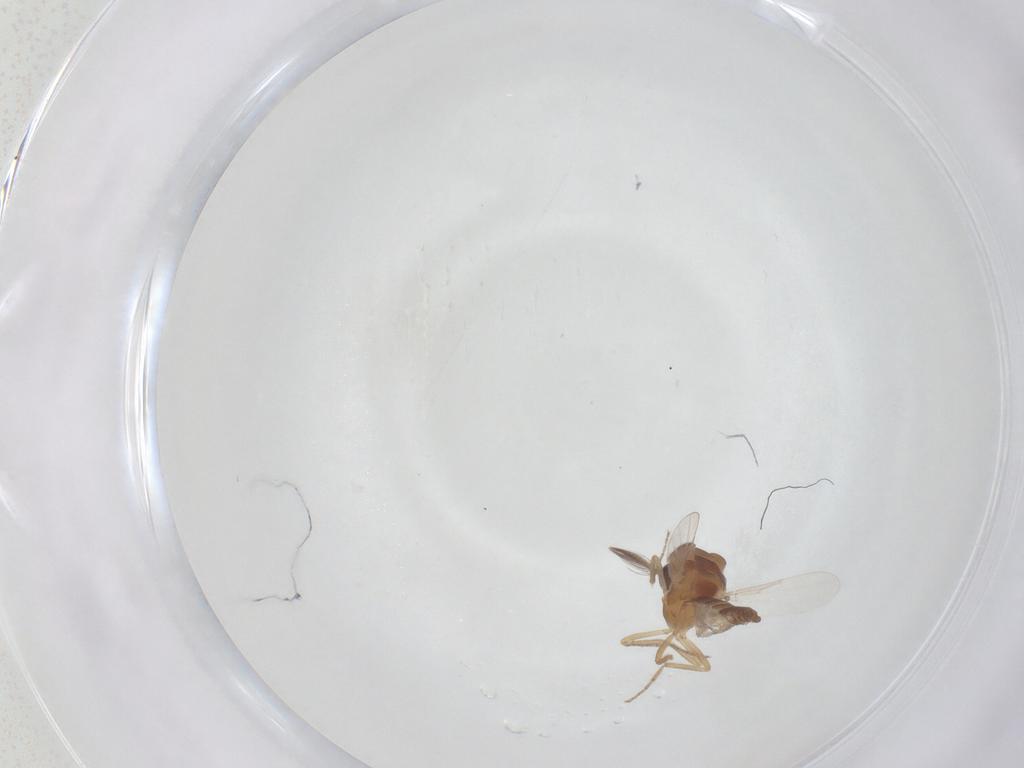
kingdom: Animalia
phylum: Arthropoda
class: Insecta
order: Diptera
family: Ceratopogonidae
